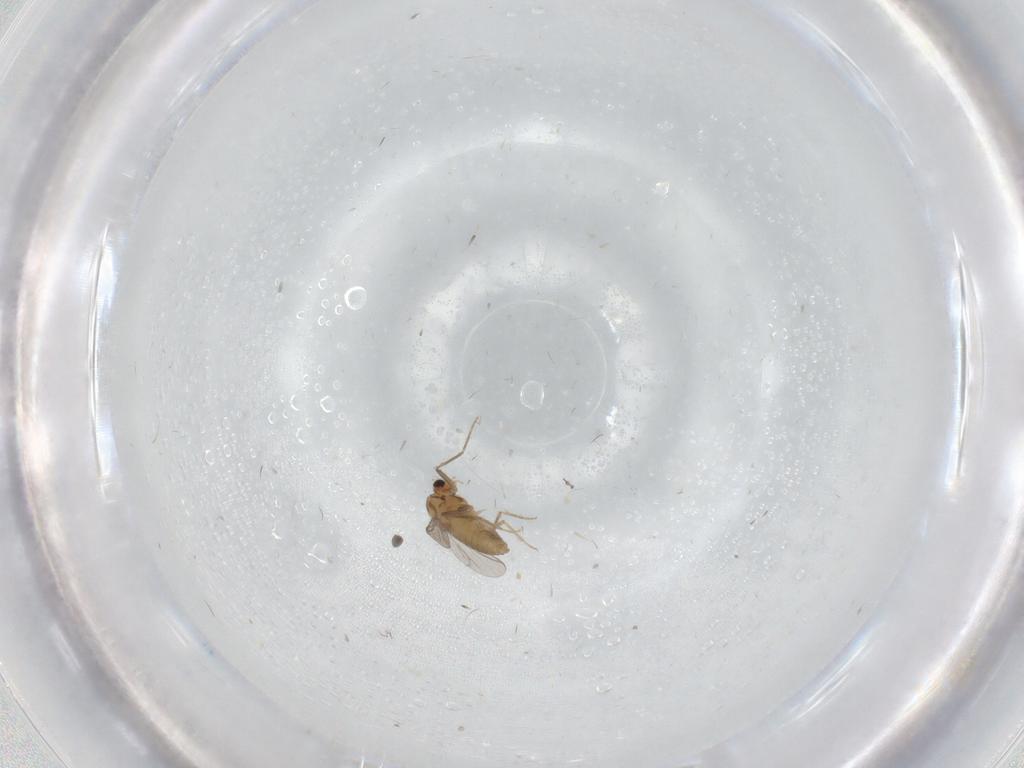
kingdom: Animalia
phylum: Arthropoda
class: Insecta
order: Diptera
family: Chironomidae
